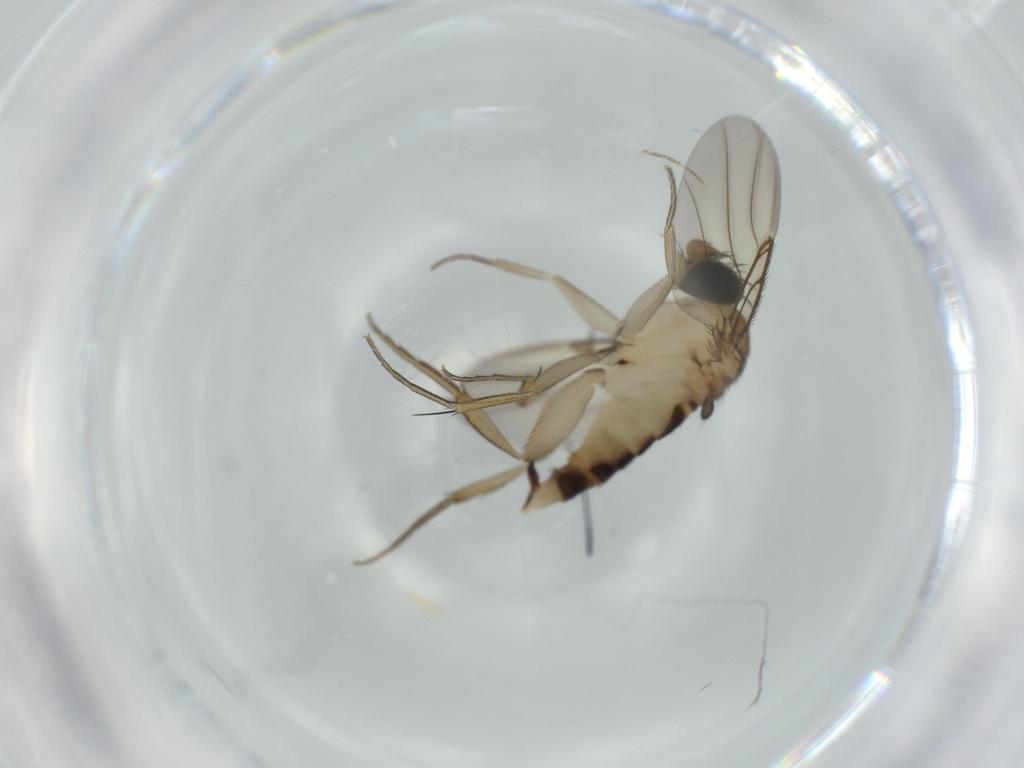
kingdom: Animalia
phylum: Arthropoda
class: Insecta
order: Diptera
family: Phoridae
